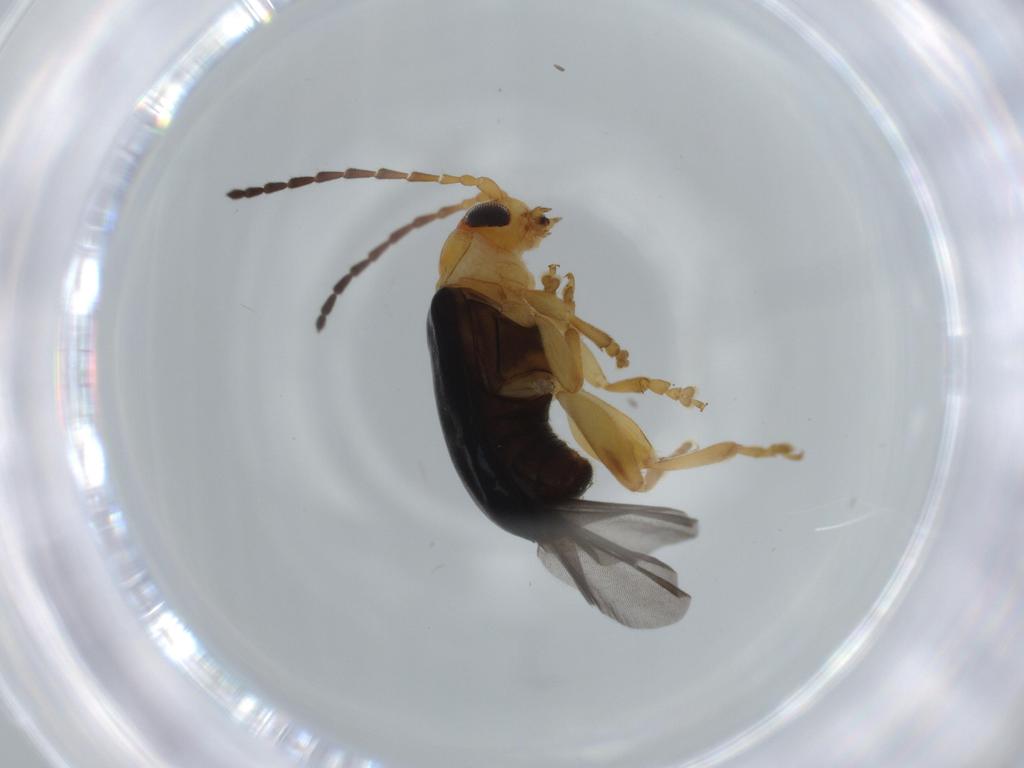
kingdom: Animalia
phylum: Arthropoda
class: Insecta
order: Coleoptera
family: Chrysomelidae
